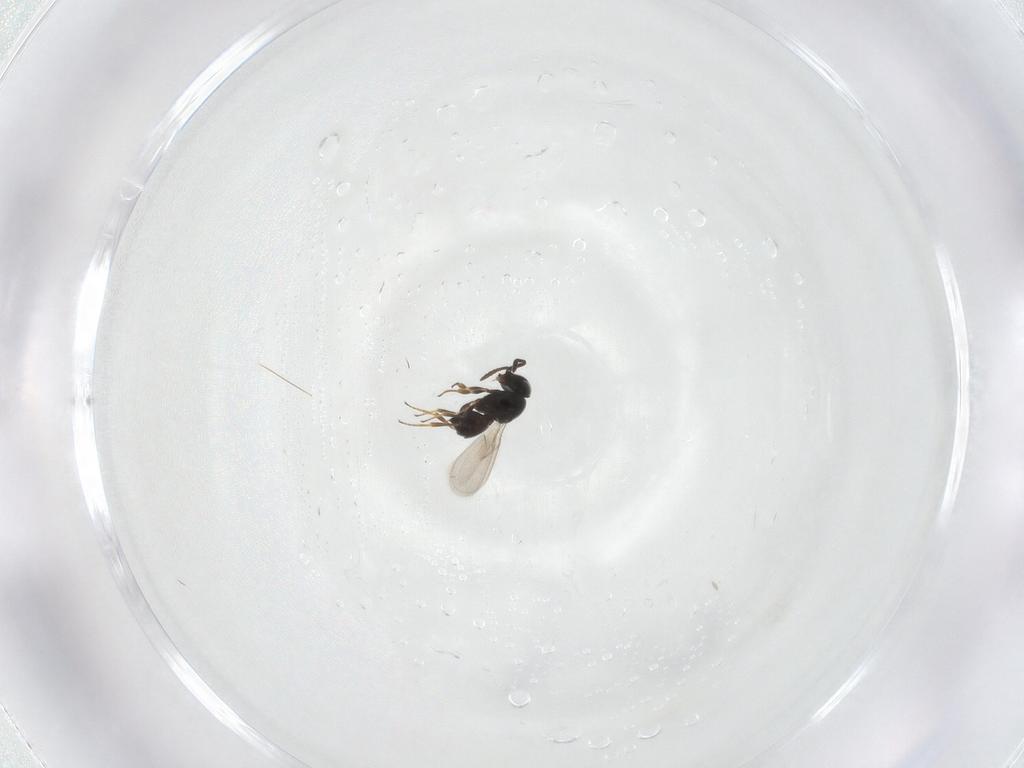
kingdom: Animalia
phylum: Arthropoda
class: Insecta
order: Hymenoptera
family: Scelionidae
